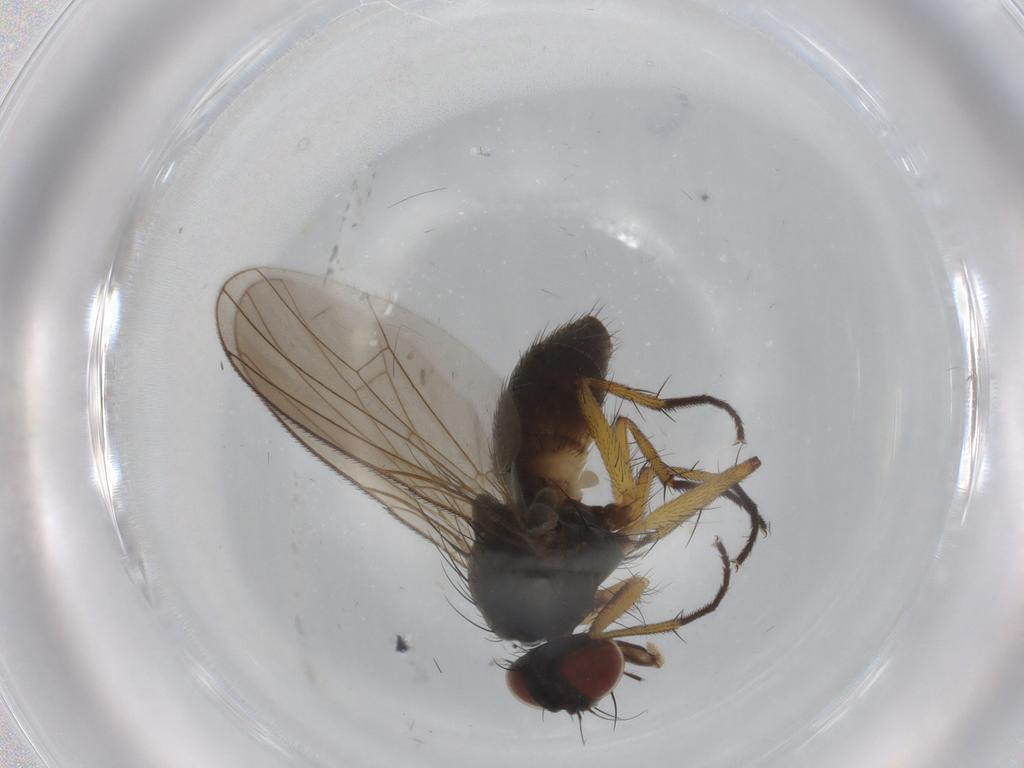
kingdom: Animalia
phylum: Arthropoda
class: Insecta
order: Diptera
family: Muscidae
